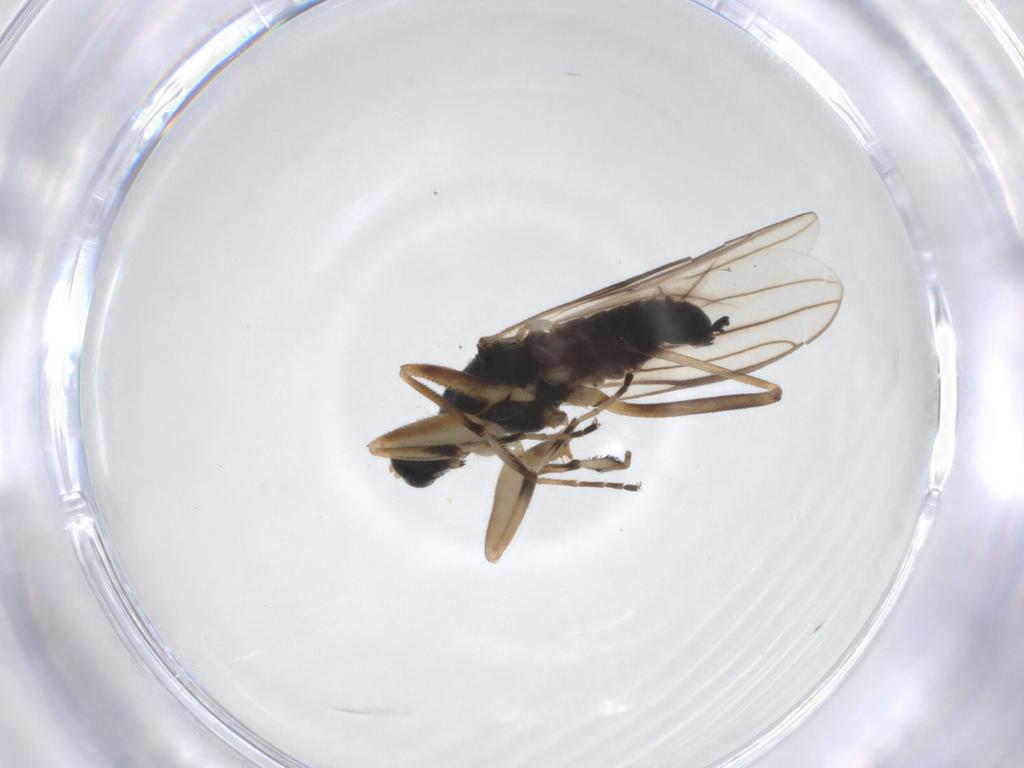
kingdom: Animalia
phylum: Arthropoda
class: Insecta
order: Diptera
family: Hybotidae
